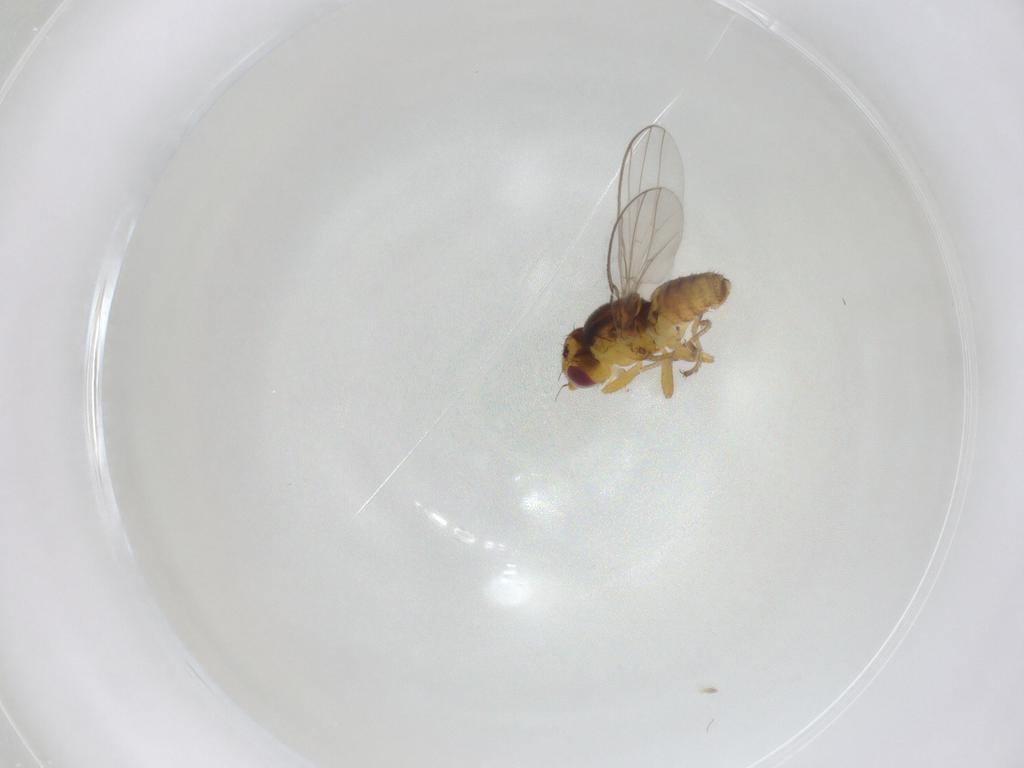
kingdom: Animalia
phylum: Arthropoda
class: Insecta
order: Diptera
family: Chloropidae
